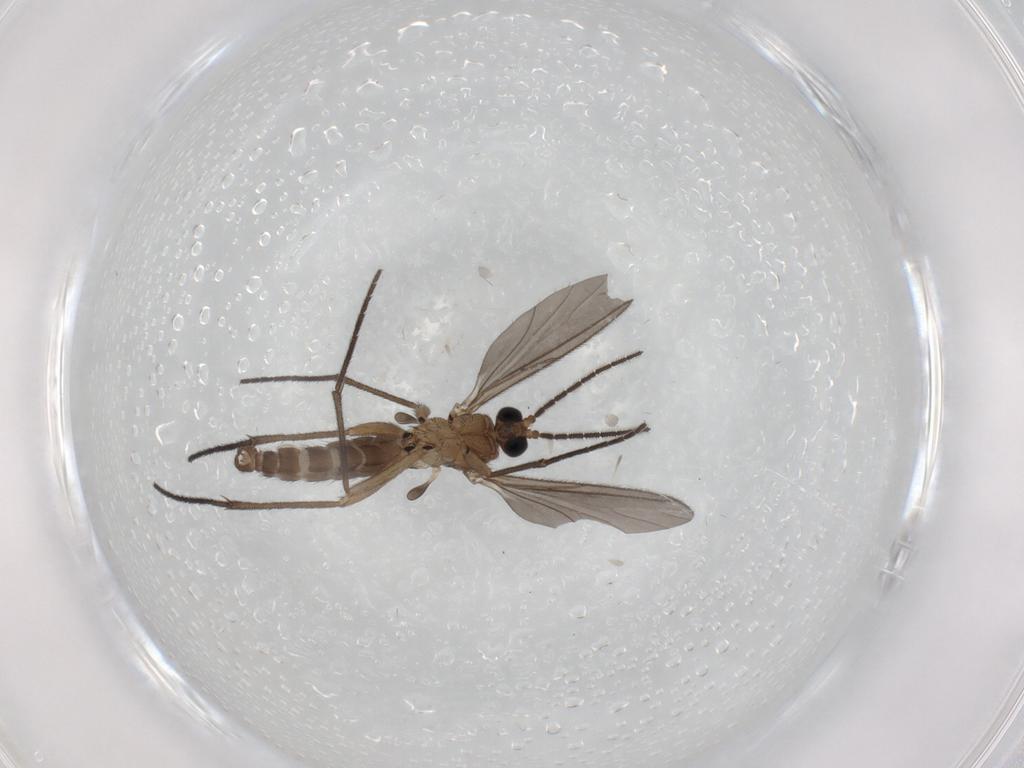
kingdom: Animalia
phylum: Arthropoda
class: Insecta
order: Diptera
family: Sciaridae
